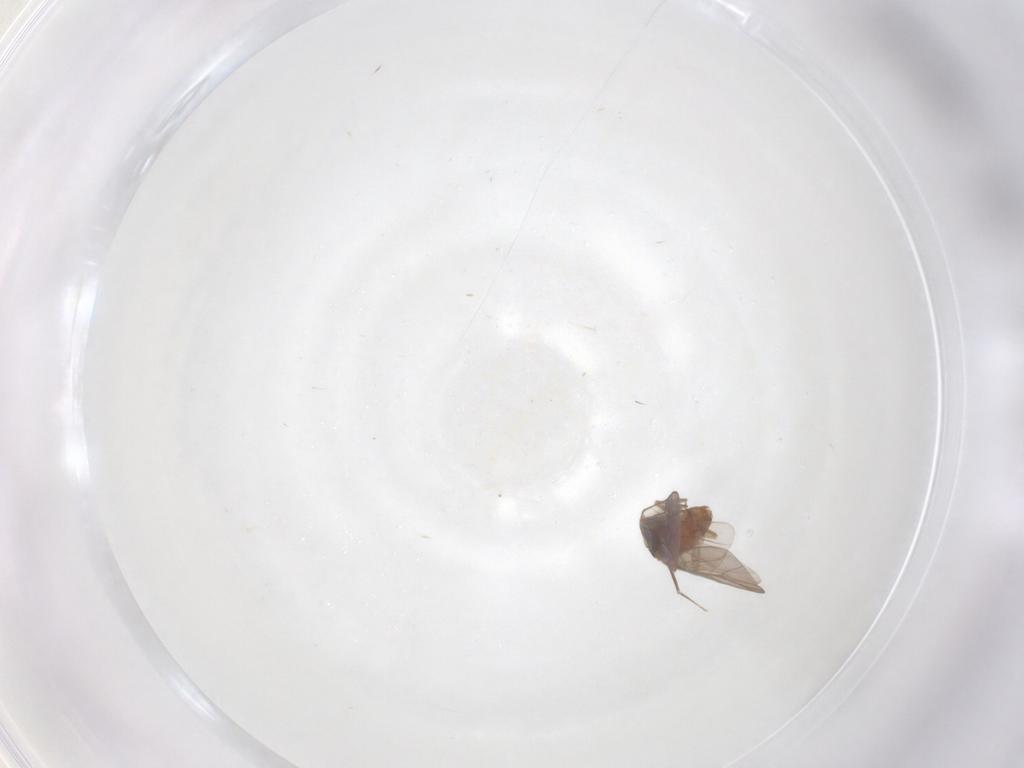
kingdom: Animalia
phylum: Arthropoda
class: Insecta
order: Psocodea
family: Lepidopsocidae
